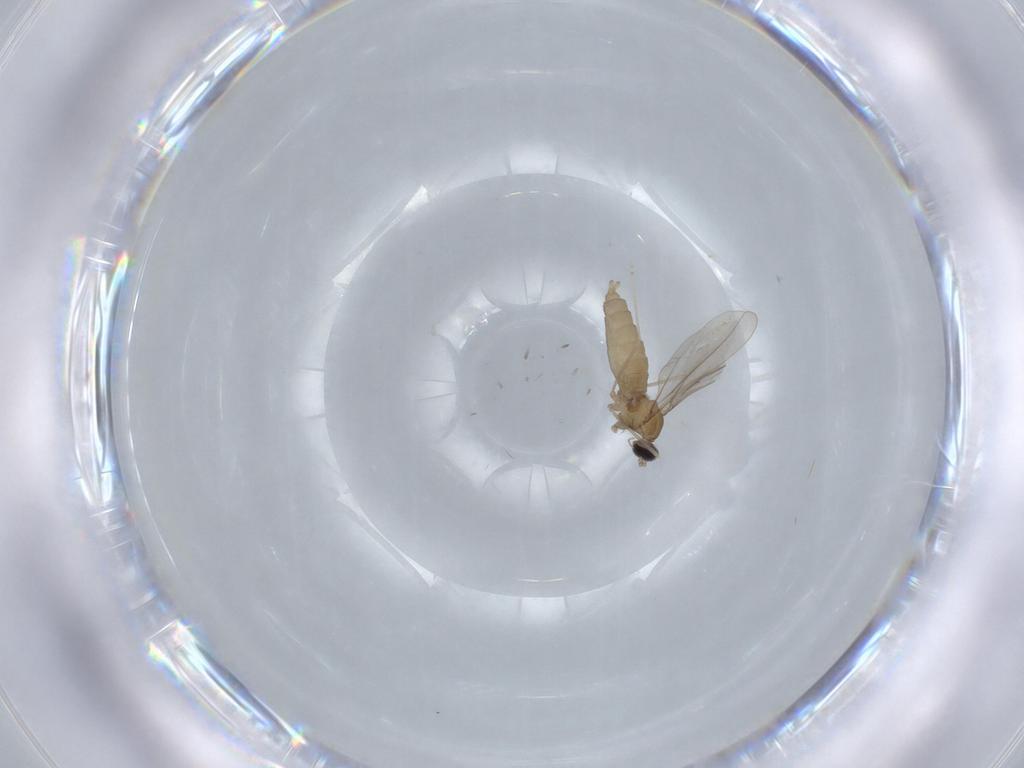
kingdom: Animalia
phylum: Arthropoda
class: Insecta
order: Diptera
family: Cecidomyiidae
